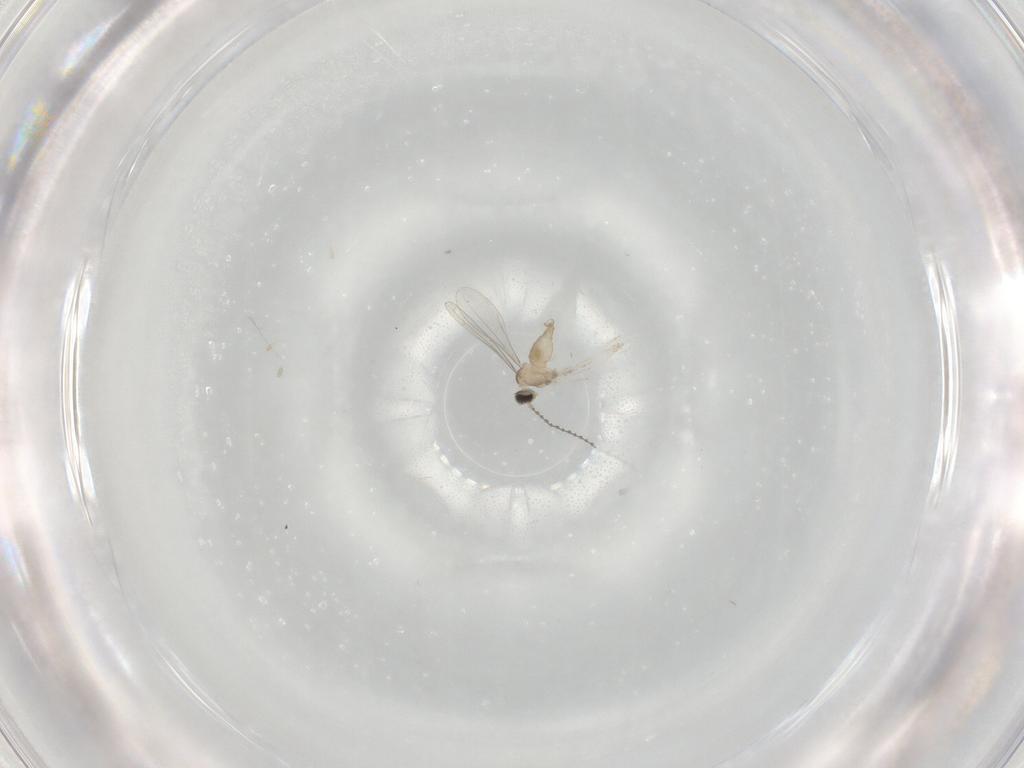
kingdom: Animalia
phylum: Arthropoda
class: Insecta
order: Diptera
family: Cecidomyiidae
